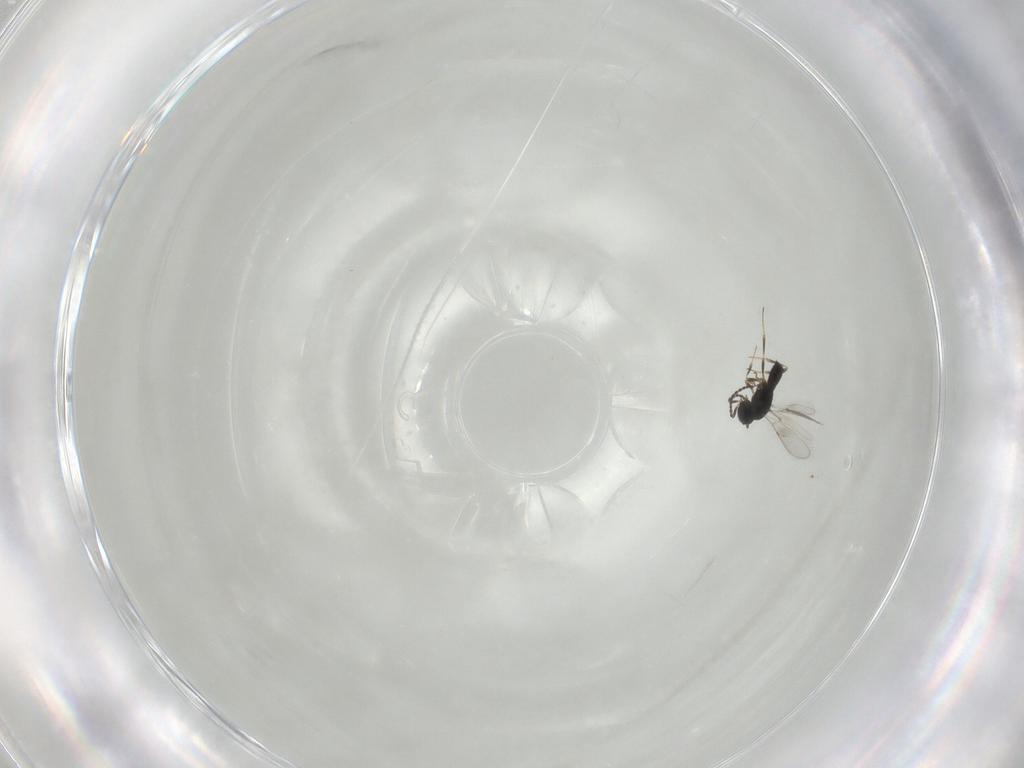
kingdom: Animalia
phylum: Arthropoda
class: Insecta
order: Hymenoptera
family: Scelionidae
